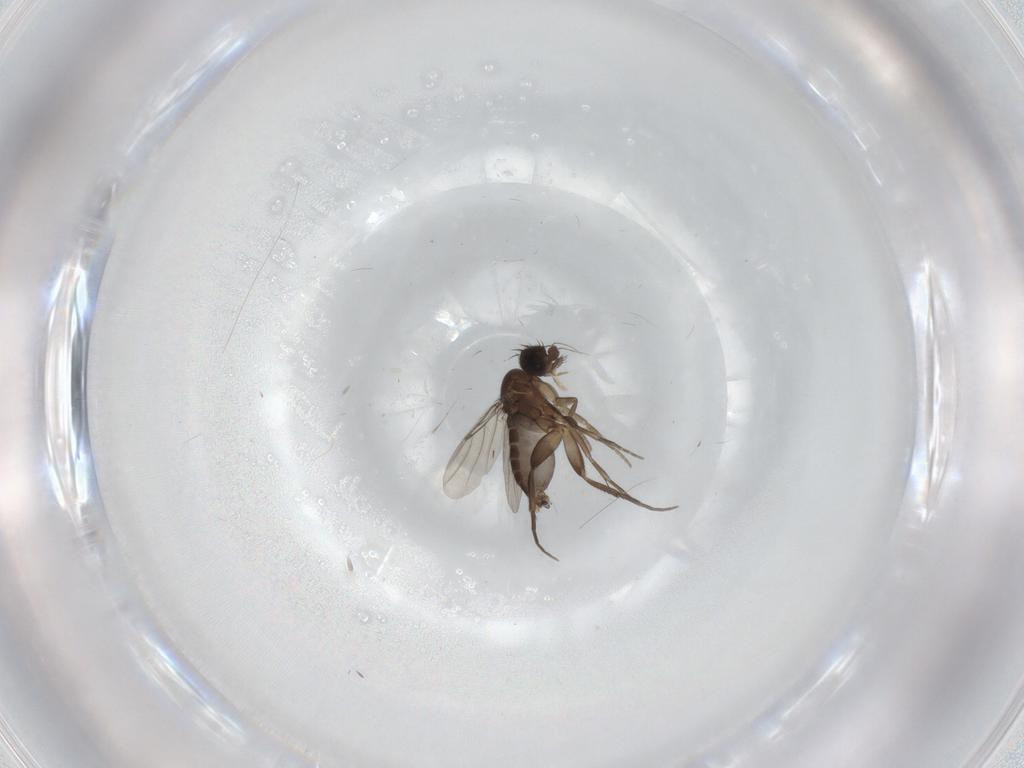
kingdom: Animalia
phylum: Arthropoda
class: Insecta
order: Diptera
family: Phoridae
